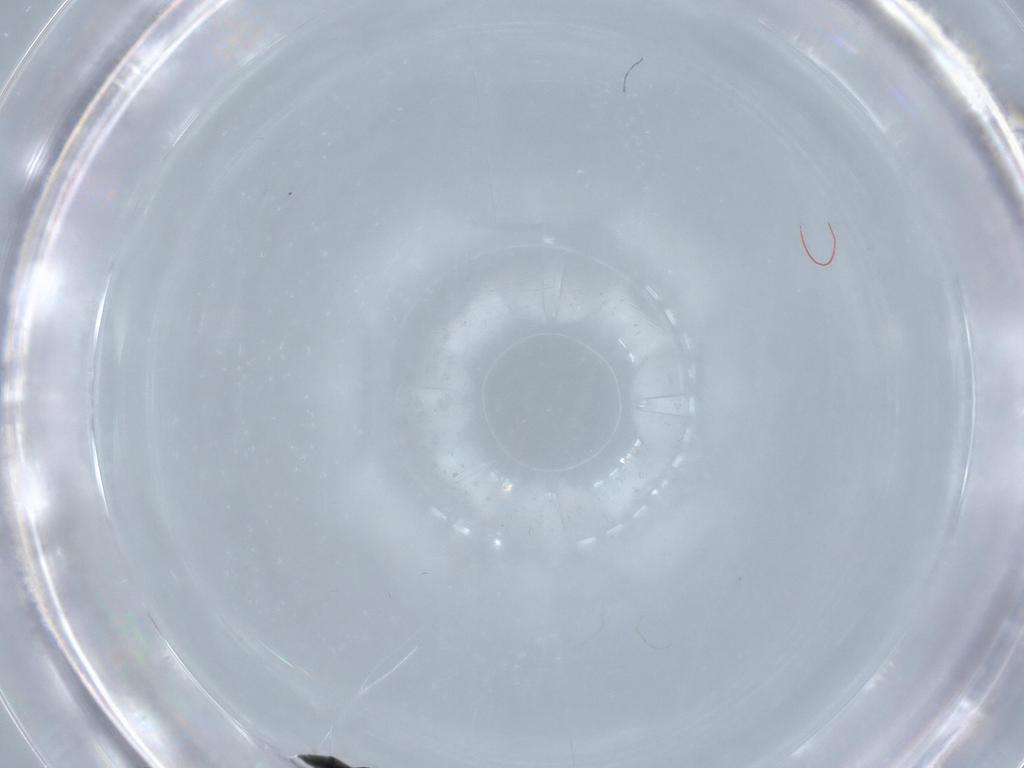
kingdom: Animalia
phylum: Arthropoda
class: Insecta
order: Hymenoptera
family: Ceraphronidae
